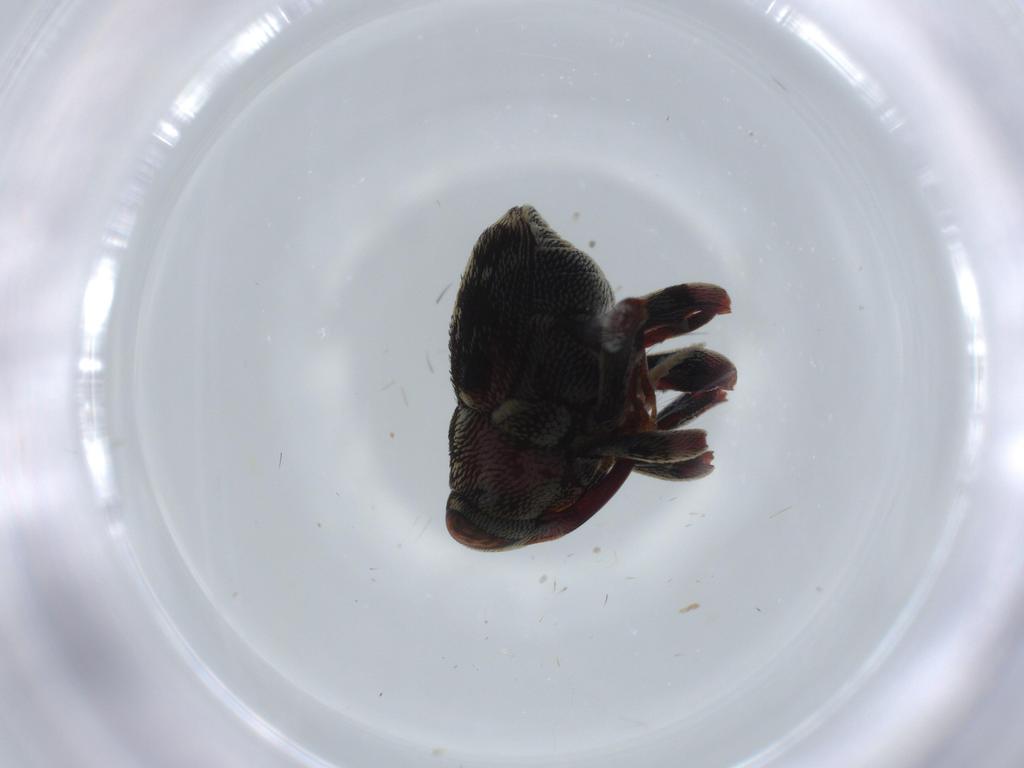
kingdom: Animalia
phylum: Arthropoda
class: Insecta
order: Coleoptera
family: Curculionidae
